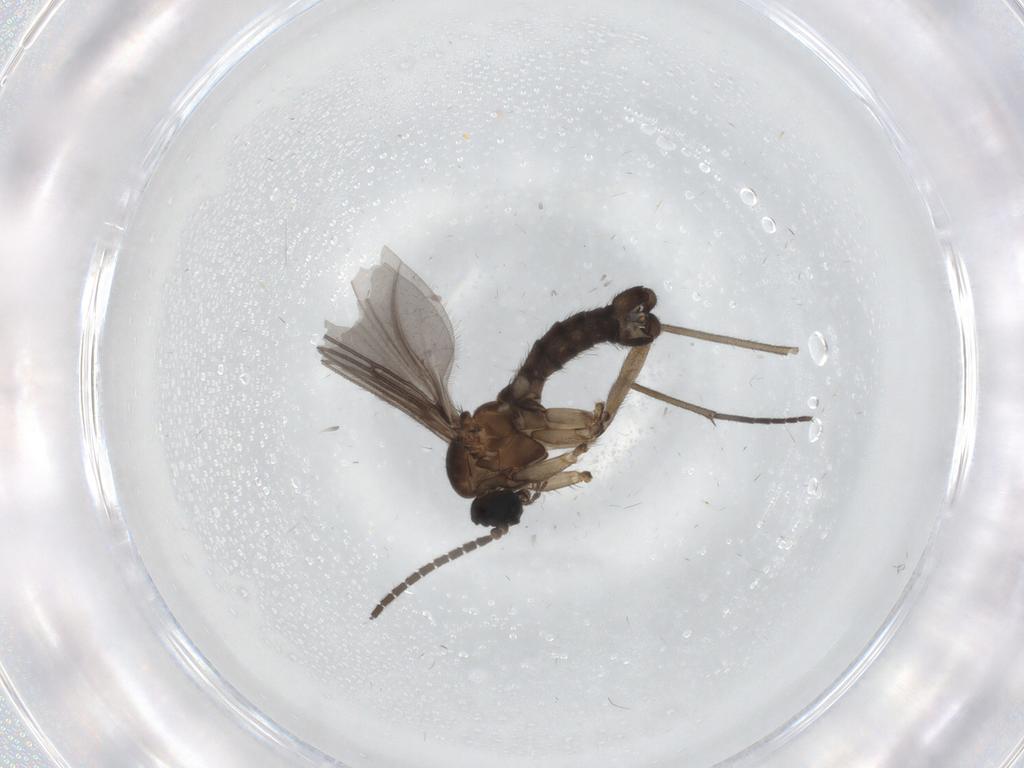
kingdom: Animalia
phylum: Arthropoda
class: Insecta
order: Diptera
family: Sciaridae
